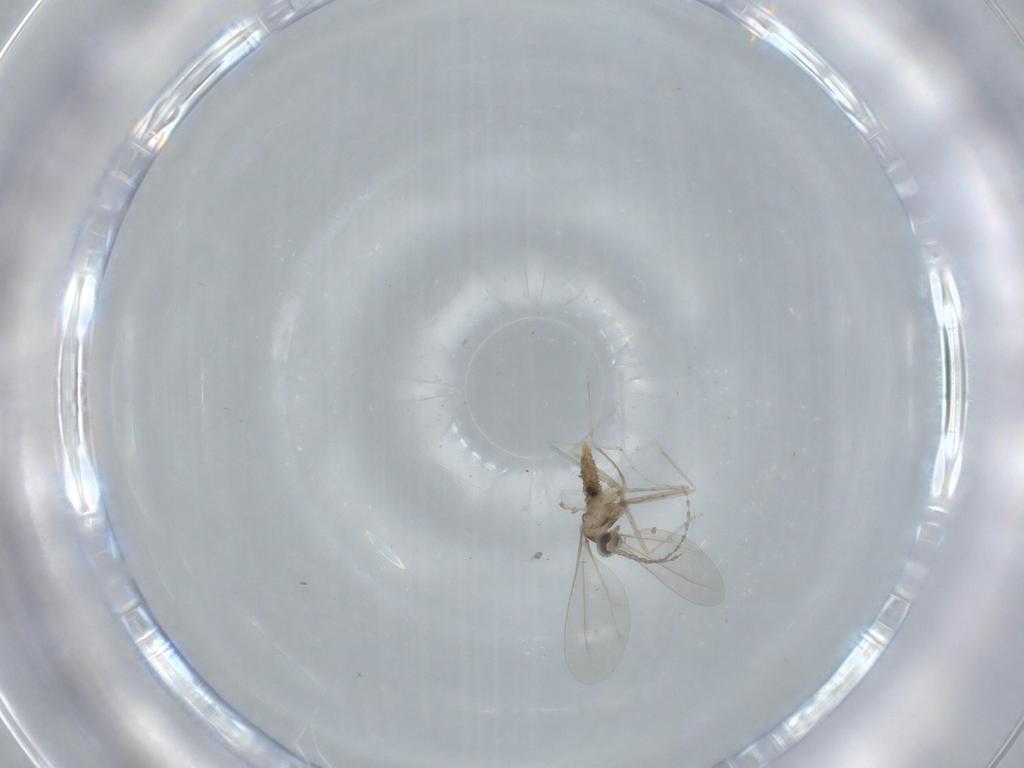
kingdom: Animalia
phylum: Arthropoda
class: Insecta
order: Diptera
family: Cecidomyiidae
